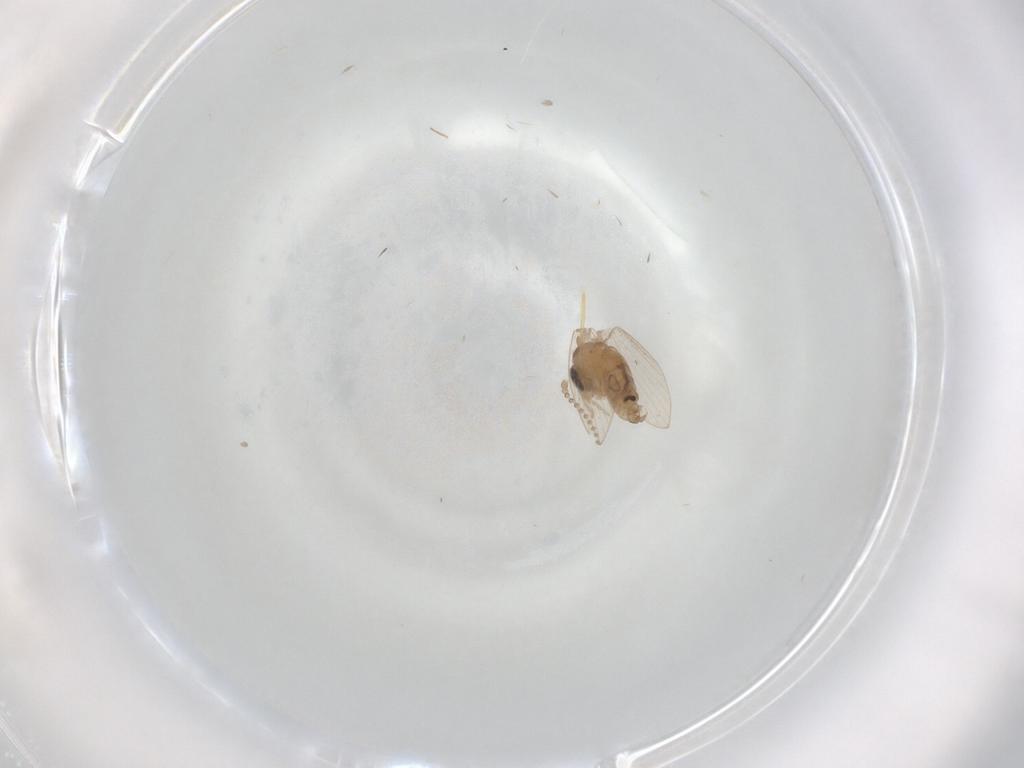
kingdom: Animalia
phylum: Arthropoda
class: Insecta
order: Diptera
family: Psychodidae
